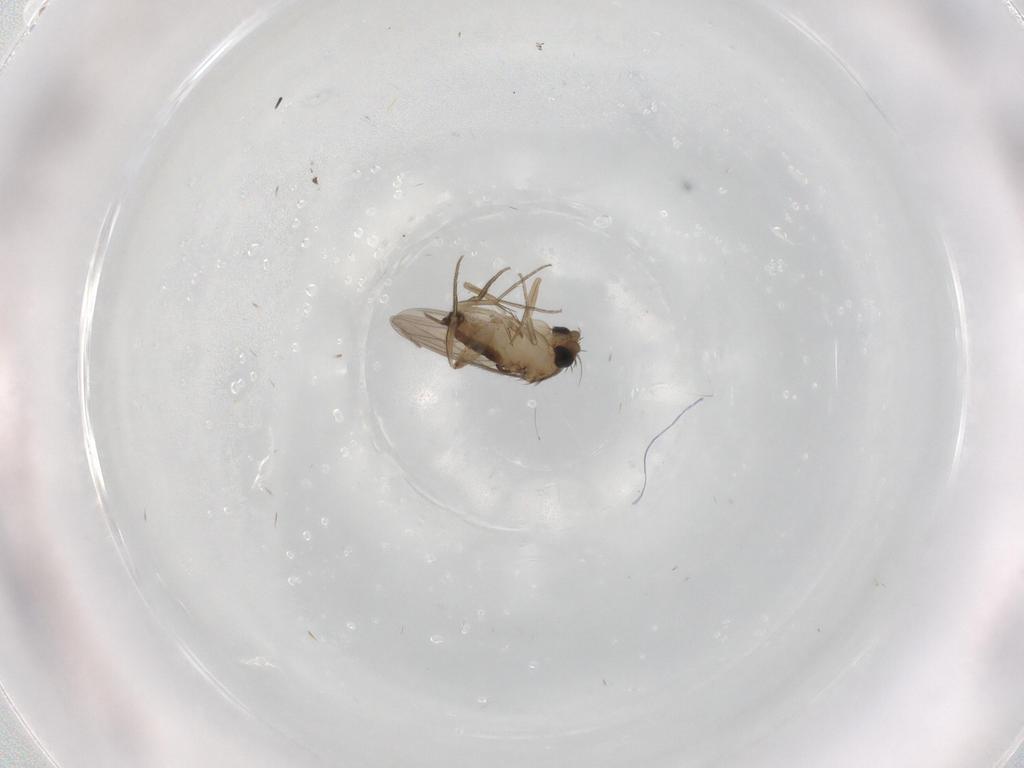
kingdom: Animalia
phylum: Arthropoda
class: Insecta
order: Diptera
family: Phoridae
